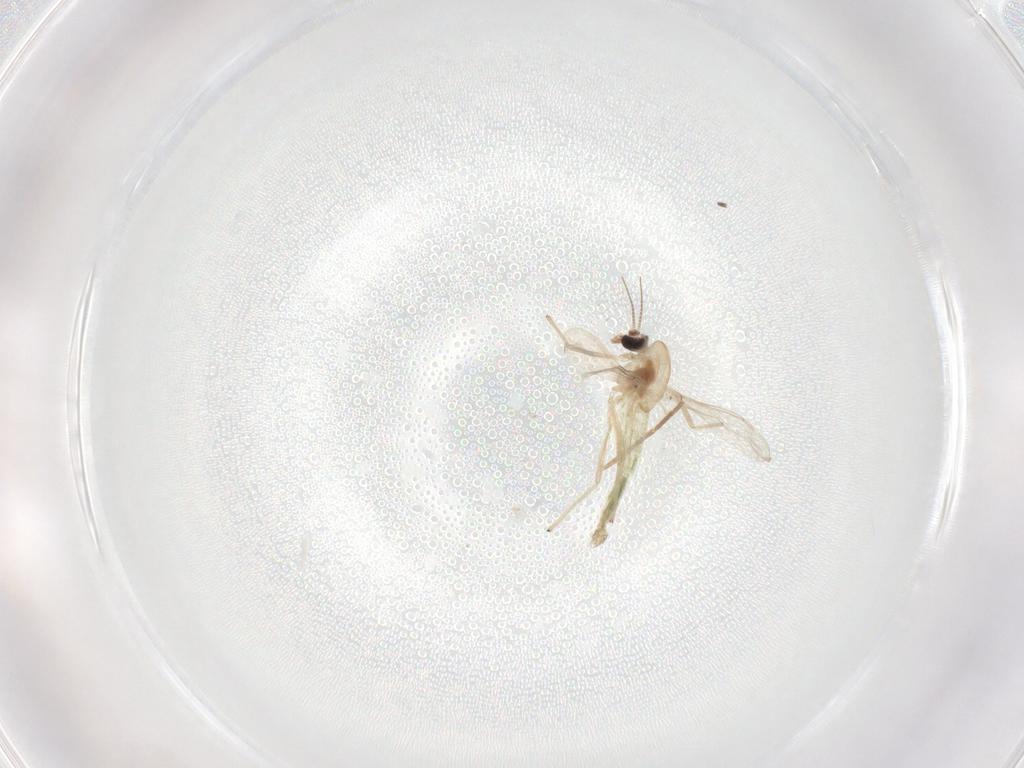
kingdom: Animalia
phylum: Arthropoda
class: Insecta
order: Diptera
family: Chironomidae
